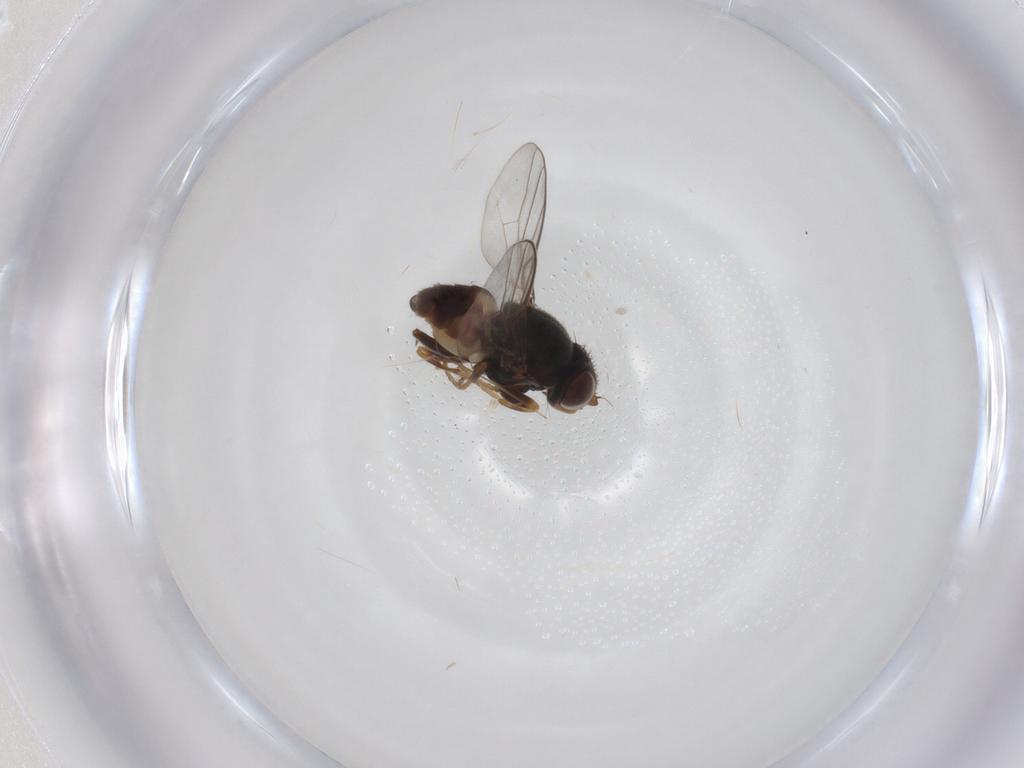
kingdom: Animalia
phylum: Arthropoda
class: Insecta
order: Diptera
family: Chloropidae
